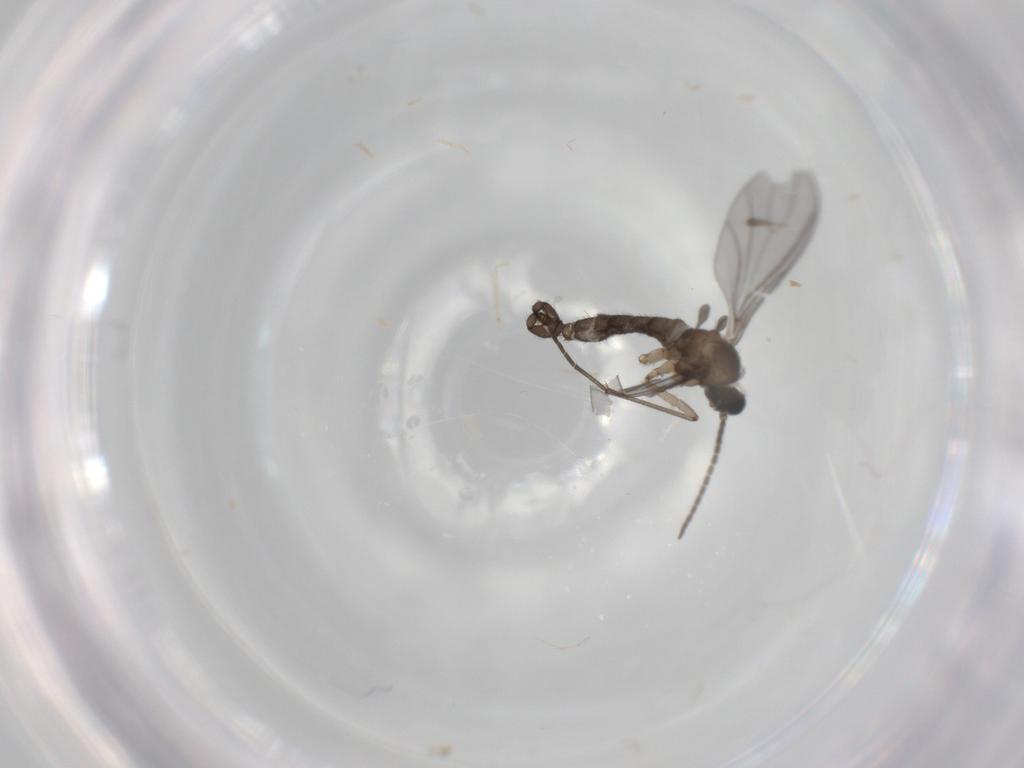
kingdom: Animalia
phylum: Arthropoda
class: Insecta
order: Diptera
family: Sciaridae
